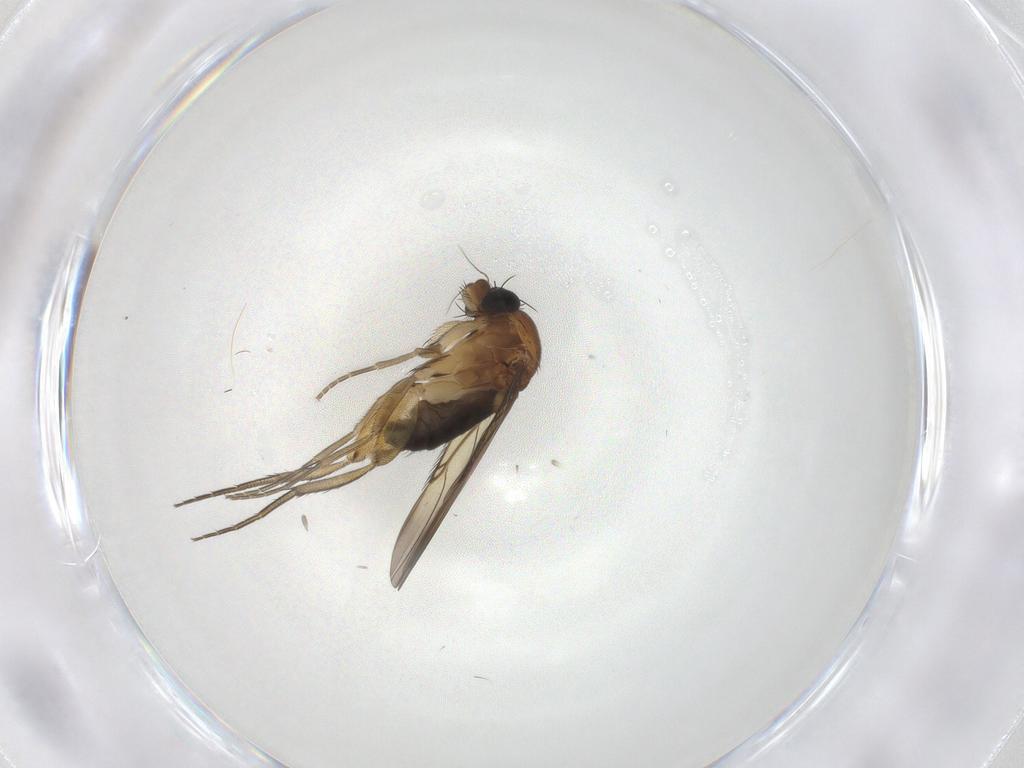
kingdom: Animalia
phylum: Arthropoda
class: Insecta
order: Diptera
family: Phoridae
